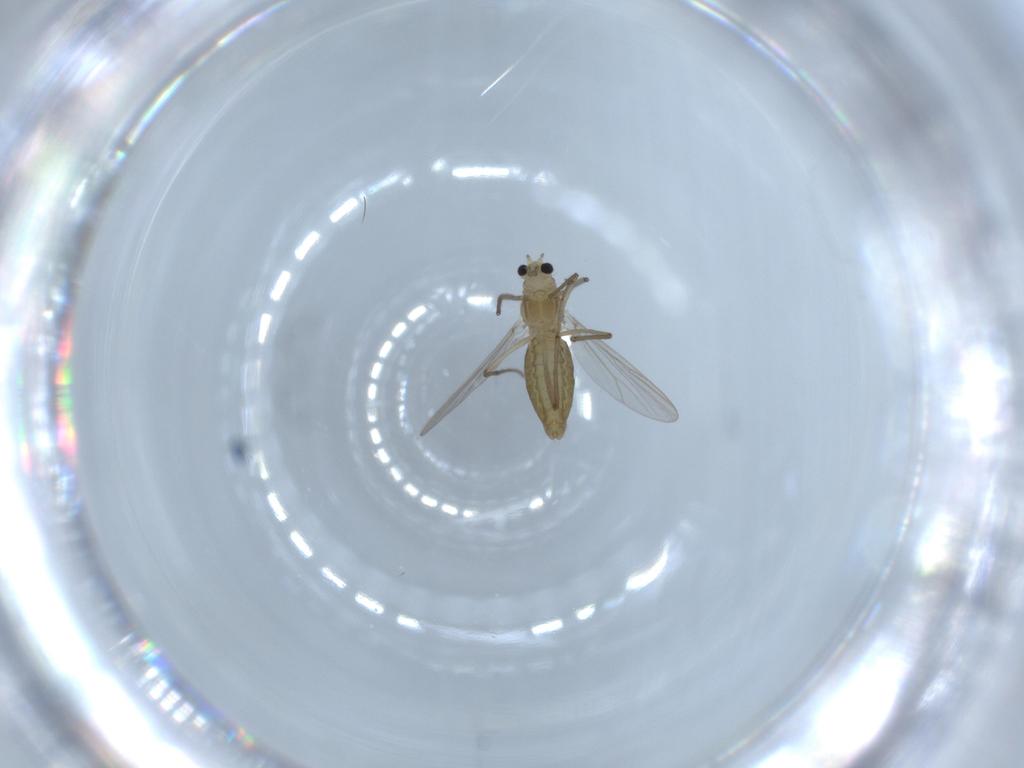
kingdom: Animalia
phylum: Arthropoda
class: Insecta
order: Diptera
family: Chironomidae
